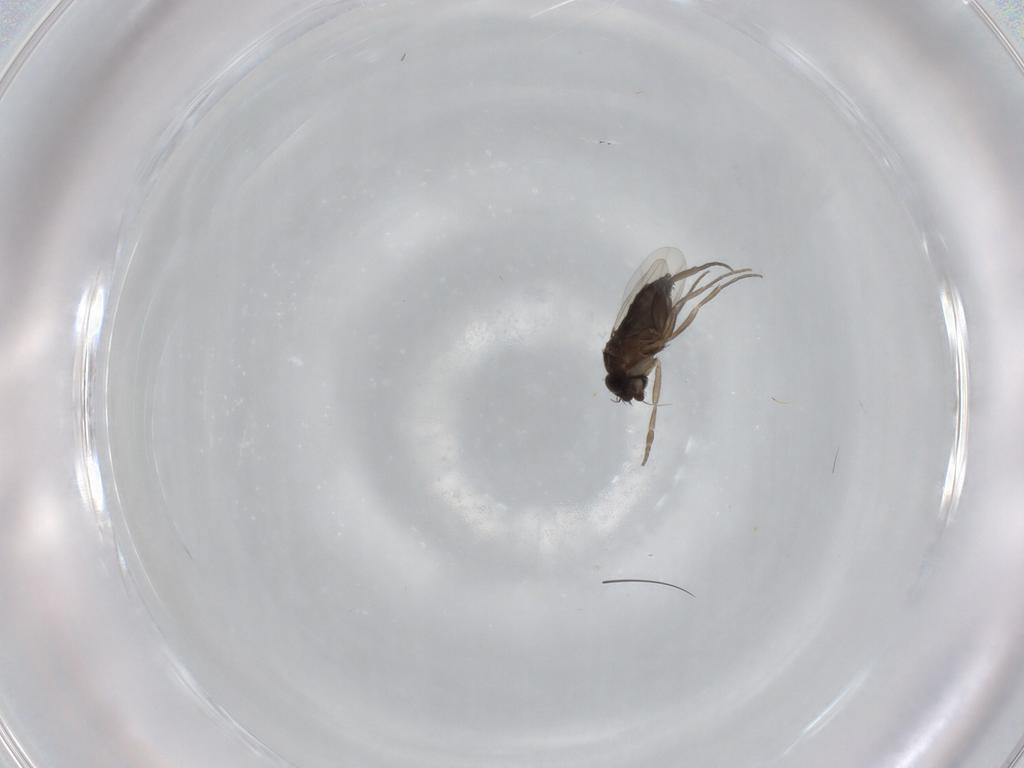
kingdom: Animalia
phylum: Arthropoda
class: Insecta
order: Diptera
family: Phoridae
